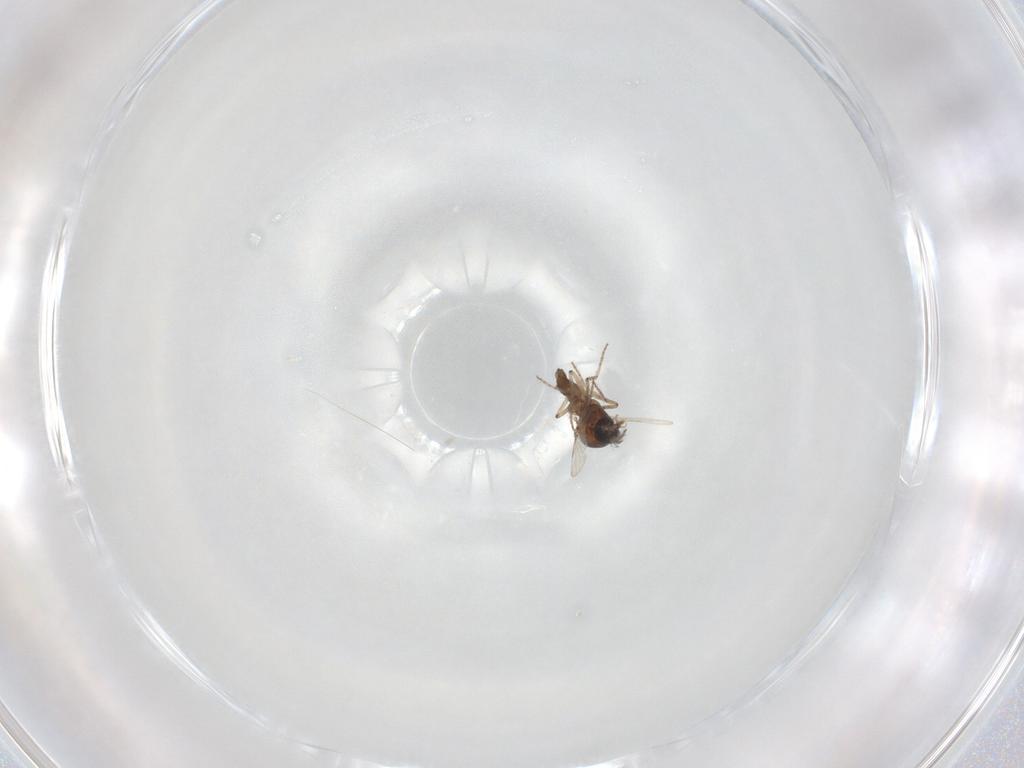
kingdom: Animalia
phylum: Arthropoda
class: Insecta
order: Diptera
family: Ceratopogonidae
